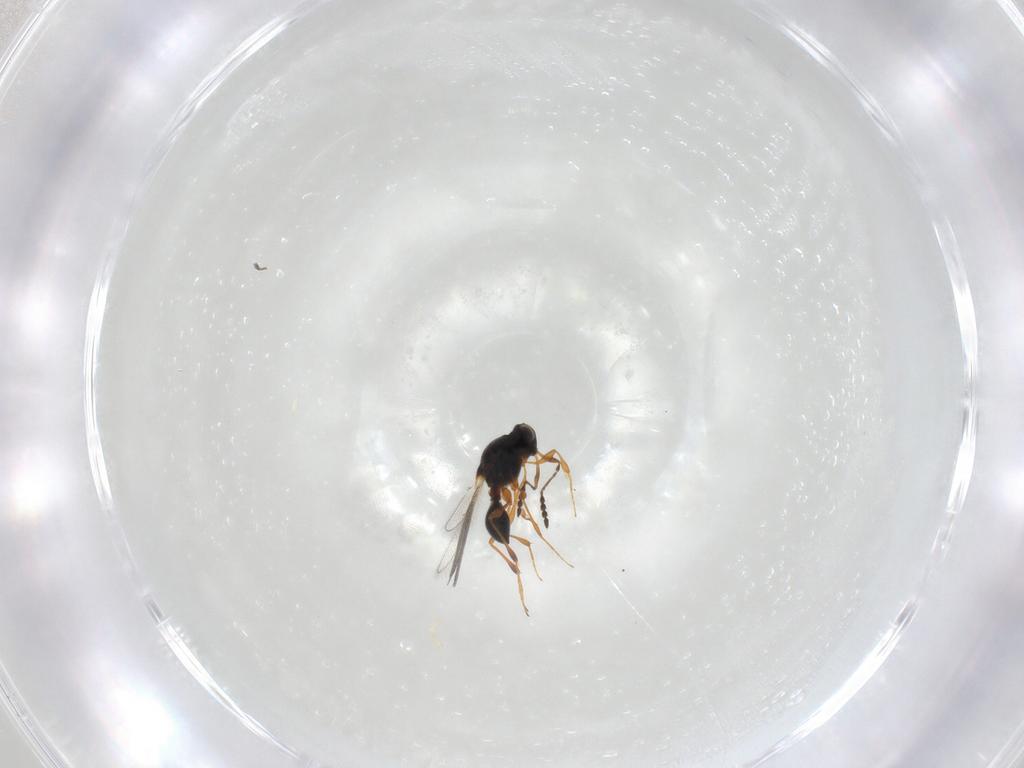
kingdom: Animalia
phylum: Arthropoda
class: Insecta
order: Hymenoptera
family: Platygastridae
